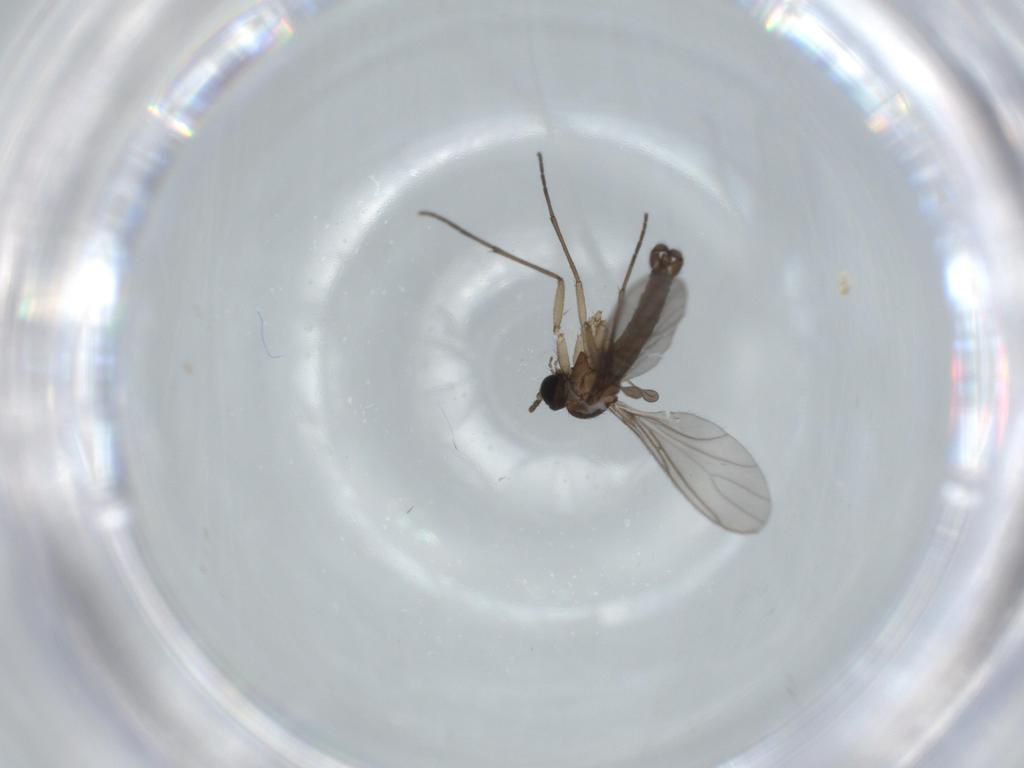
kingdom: Animalia
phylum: Arthropoda
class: Insecta
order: Diptera
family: Sciaridae
